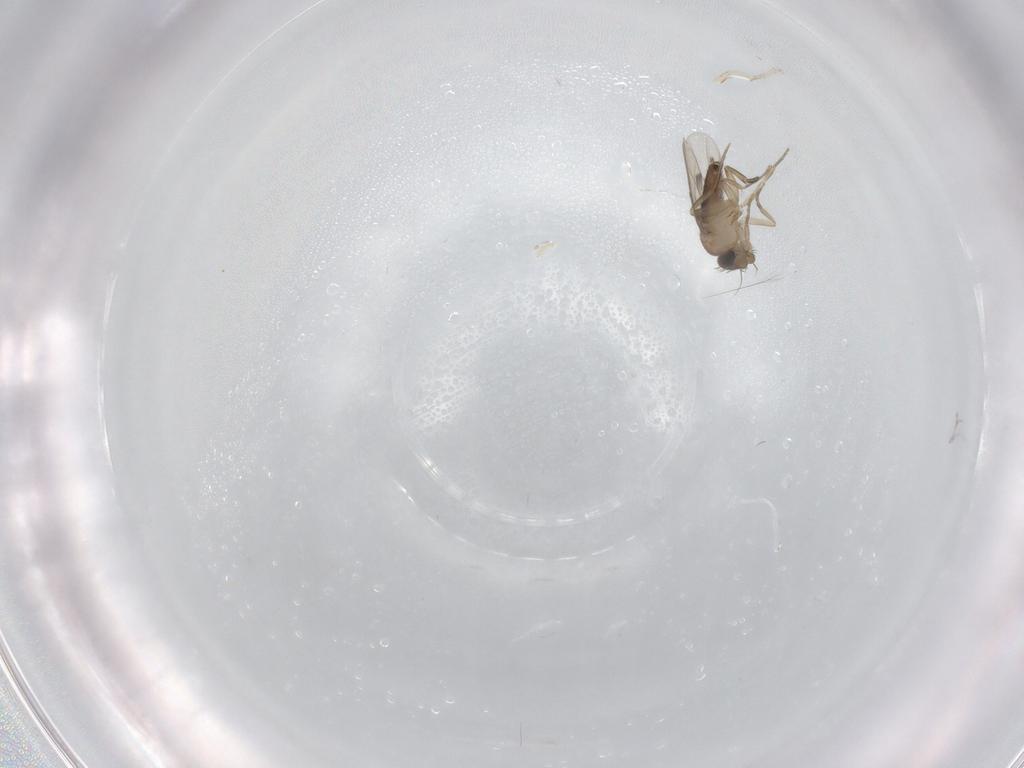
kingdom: Animalia
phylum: Arthropoda
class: Insecta
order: Diptera
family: Phoridae
